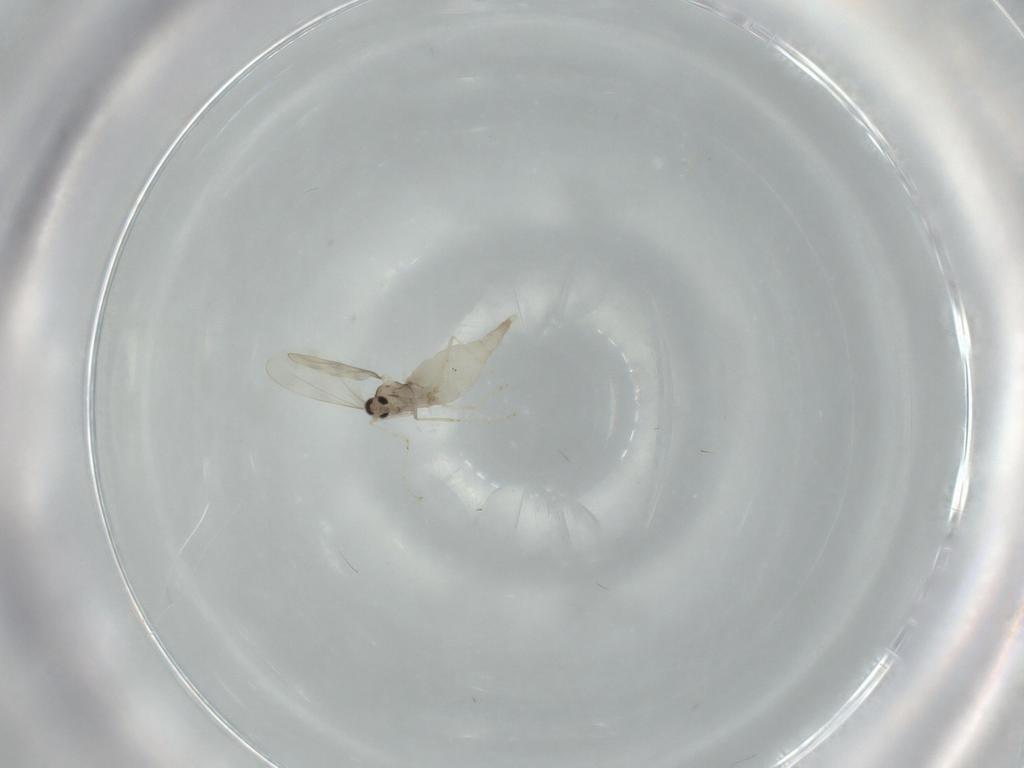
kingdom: Animalia
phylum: Arthropoda
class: Insecta
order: Diptera
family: Cecidomyiidae
